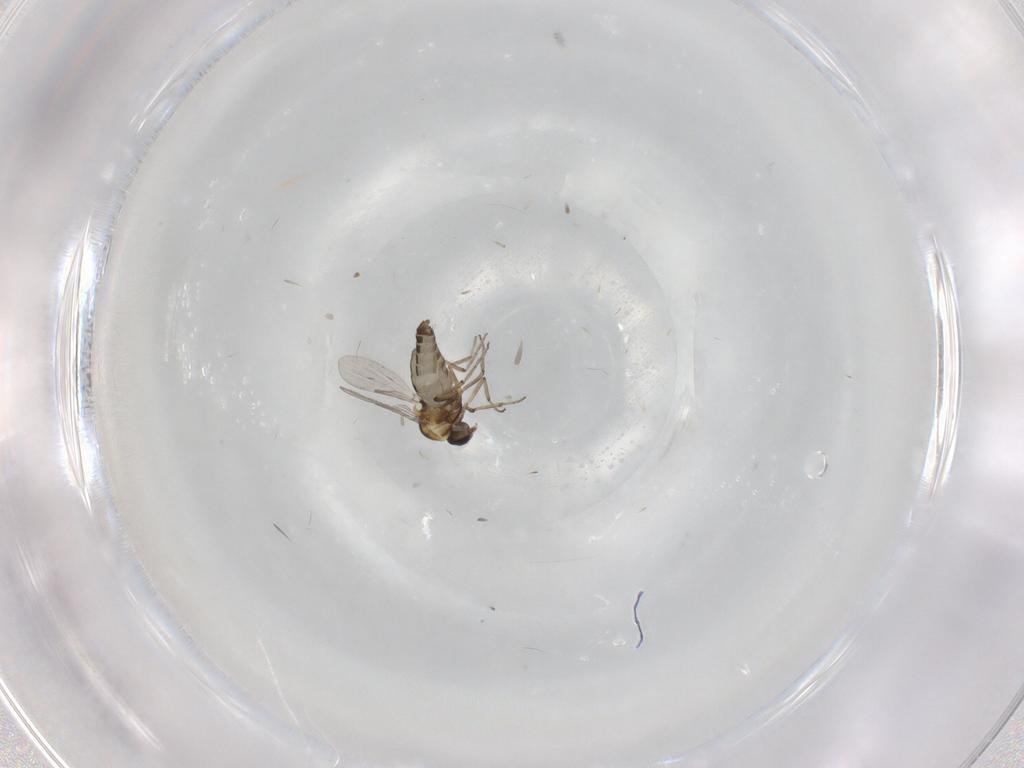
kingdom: Animalia
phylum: Arthropoda
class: Insecta
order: Diptera
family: Ceratopogonidae
